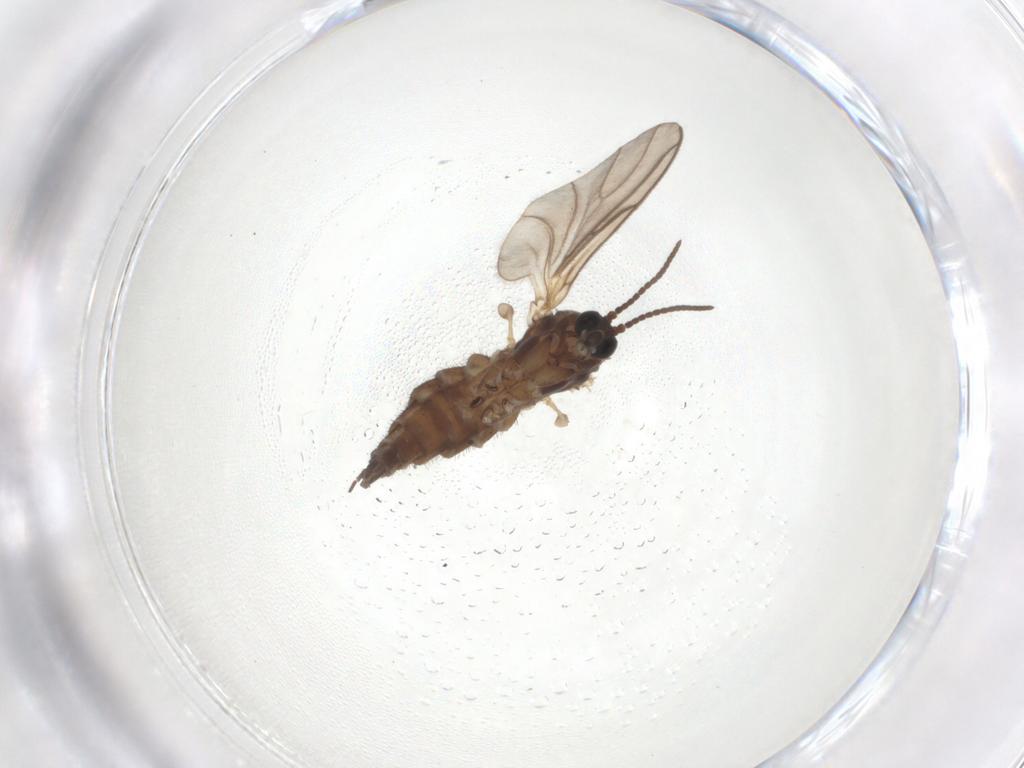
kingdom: Animalia
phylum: Arthropoda
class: Insecta
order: Diptera
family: Sciaridae
